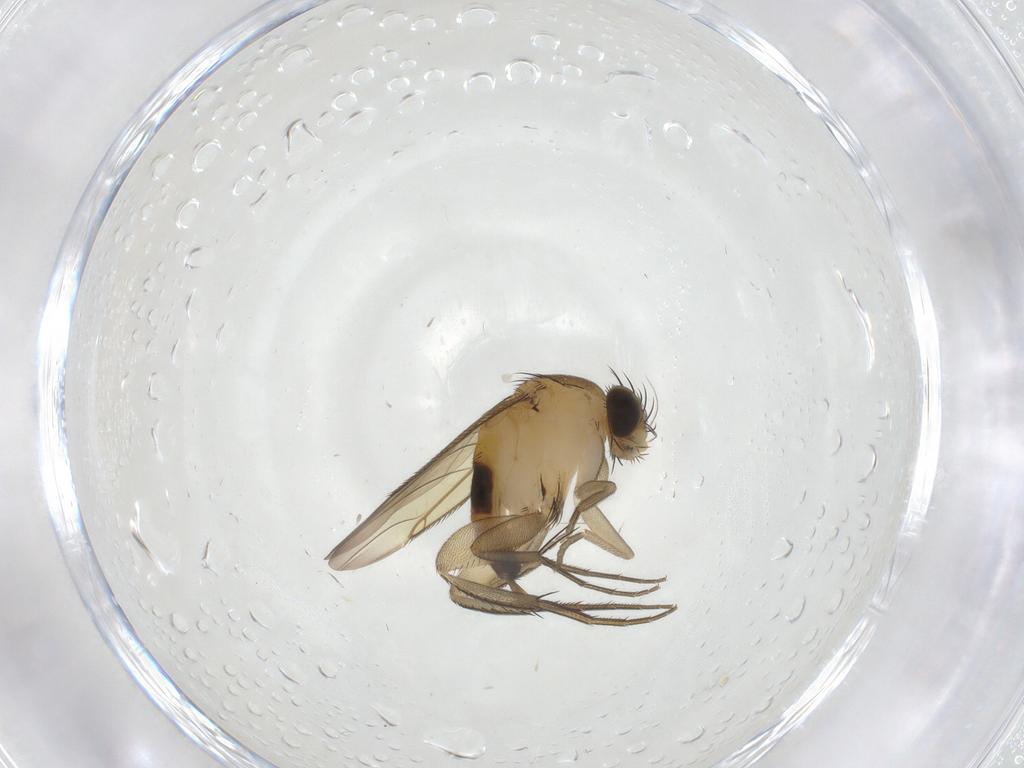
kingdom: Animalia
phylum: Arthropoda
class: Insecta
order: Diptera
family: Phoridae
